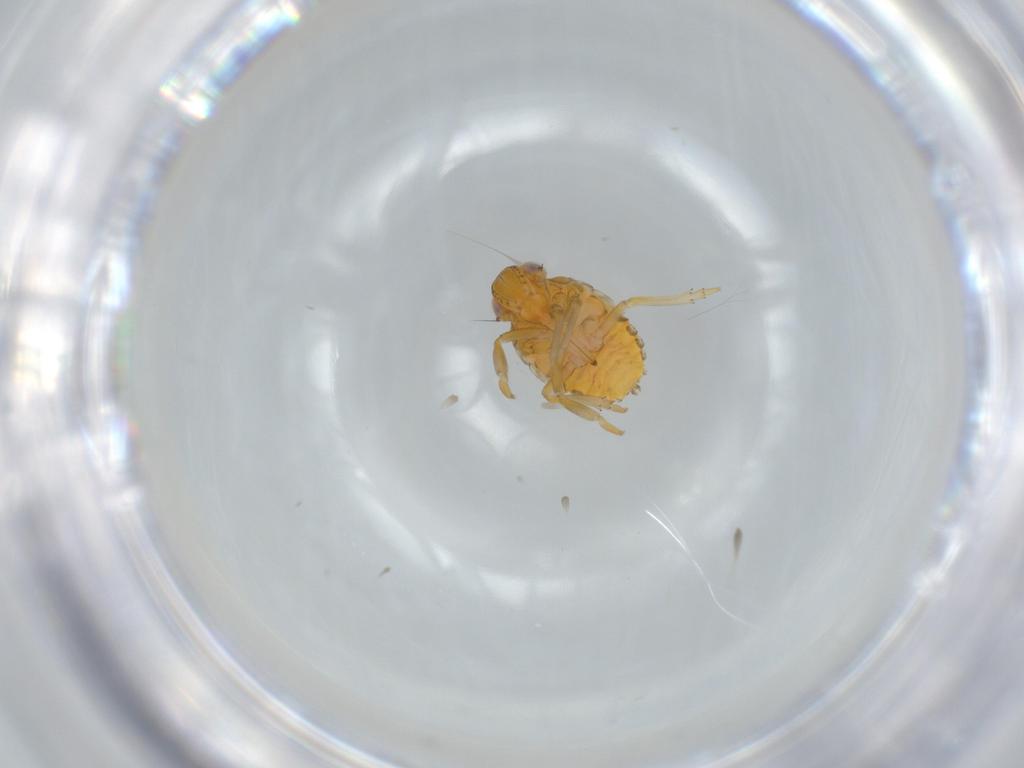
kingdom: Animalia
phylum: Arthropoda
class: Insecta
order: Hemiptera
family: Issidae
